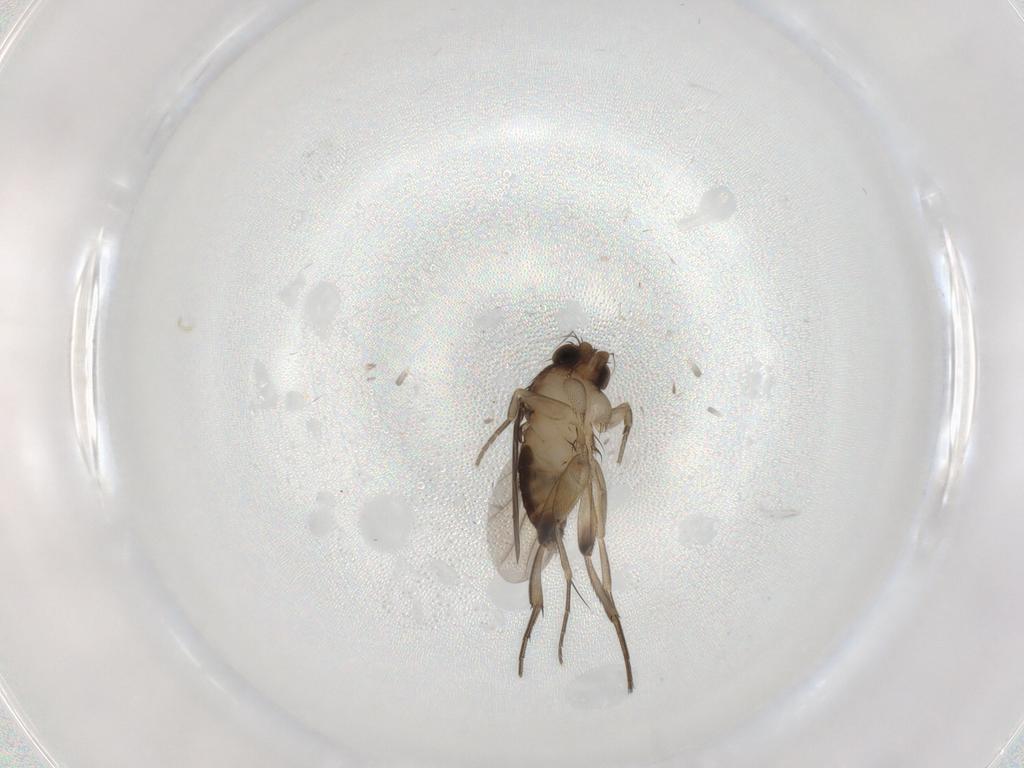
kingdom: Animalia
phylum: Arthropoda
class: Insecta
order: Diptera
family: Phoridae
